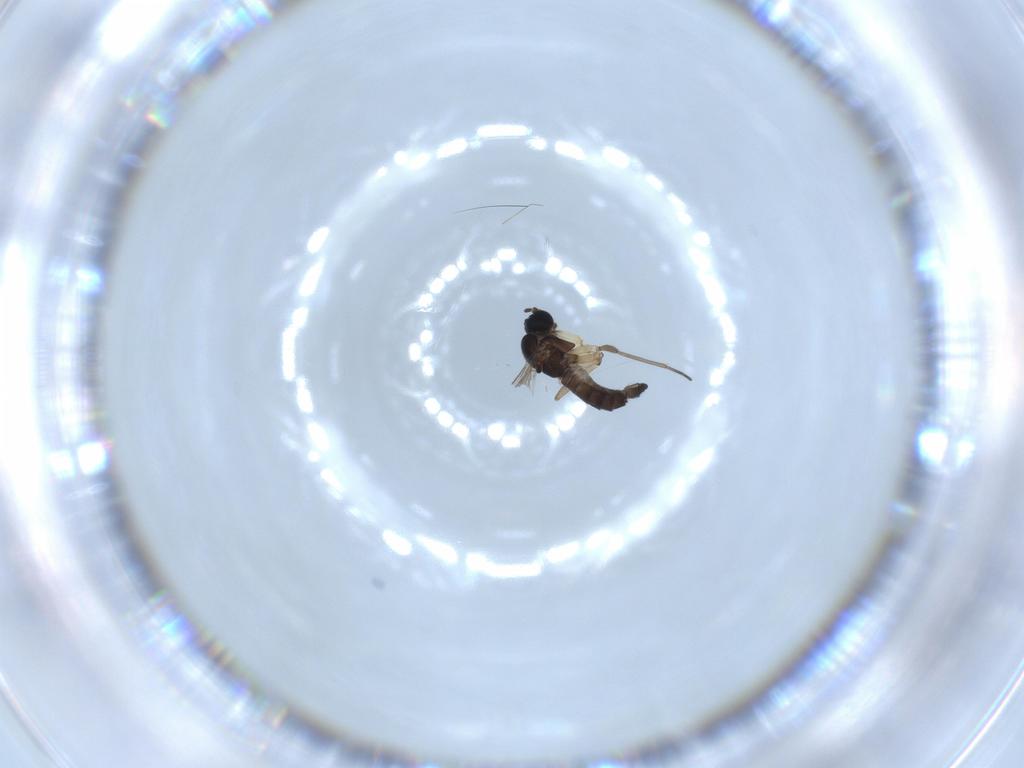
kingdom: Animalia
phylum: Arthropoda
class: Insecta
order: Diptera
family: Sciaridae
